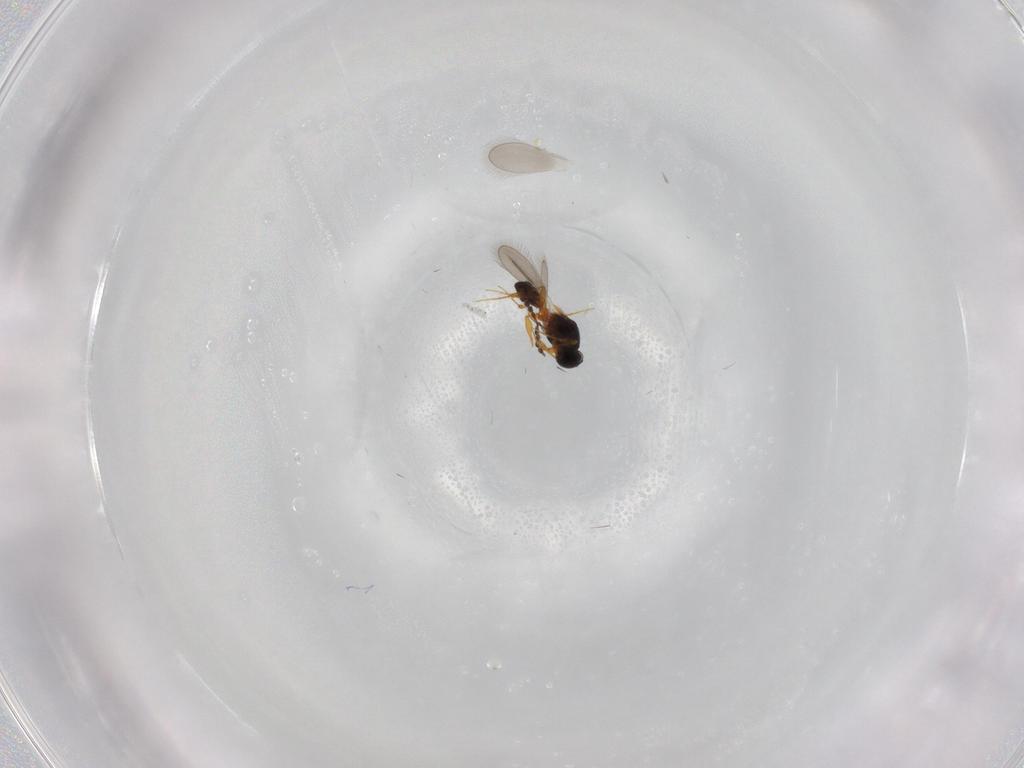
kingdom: Animalia
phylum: Arthropoda
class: Insecta
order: Hymenoptera
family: Platygastridae
